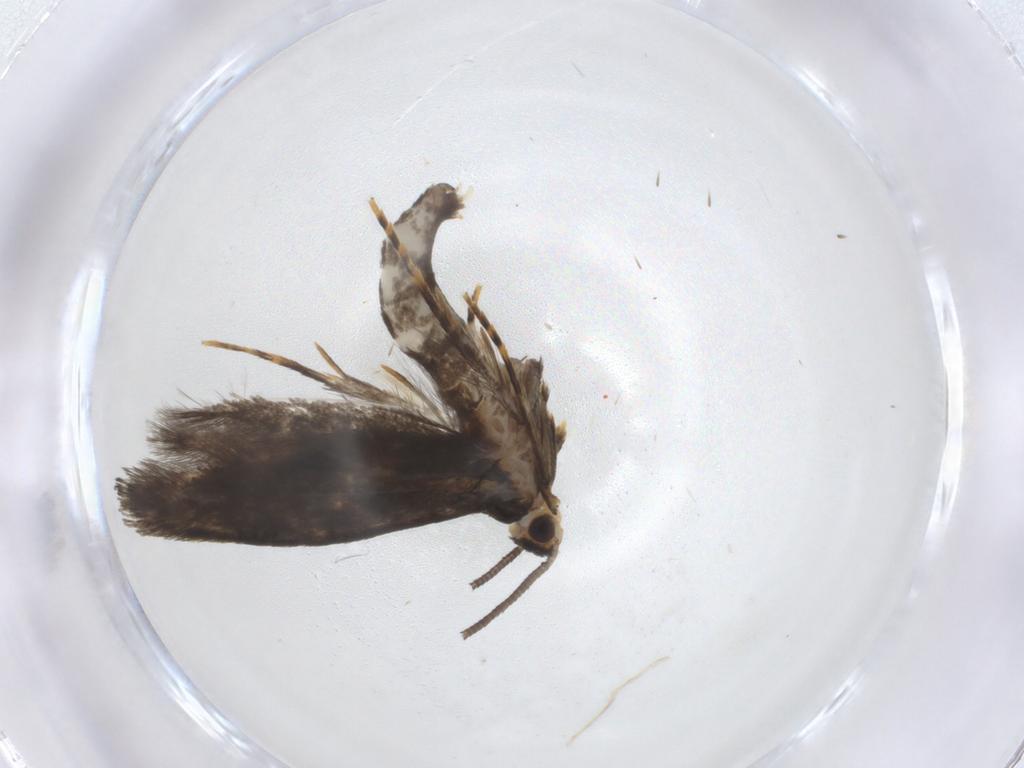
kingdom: Animalia
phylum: Arthropoda
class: Insecta
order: Lepidoptera
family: Tineidae
